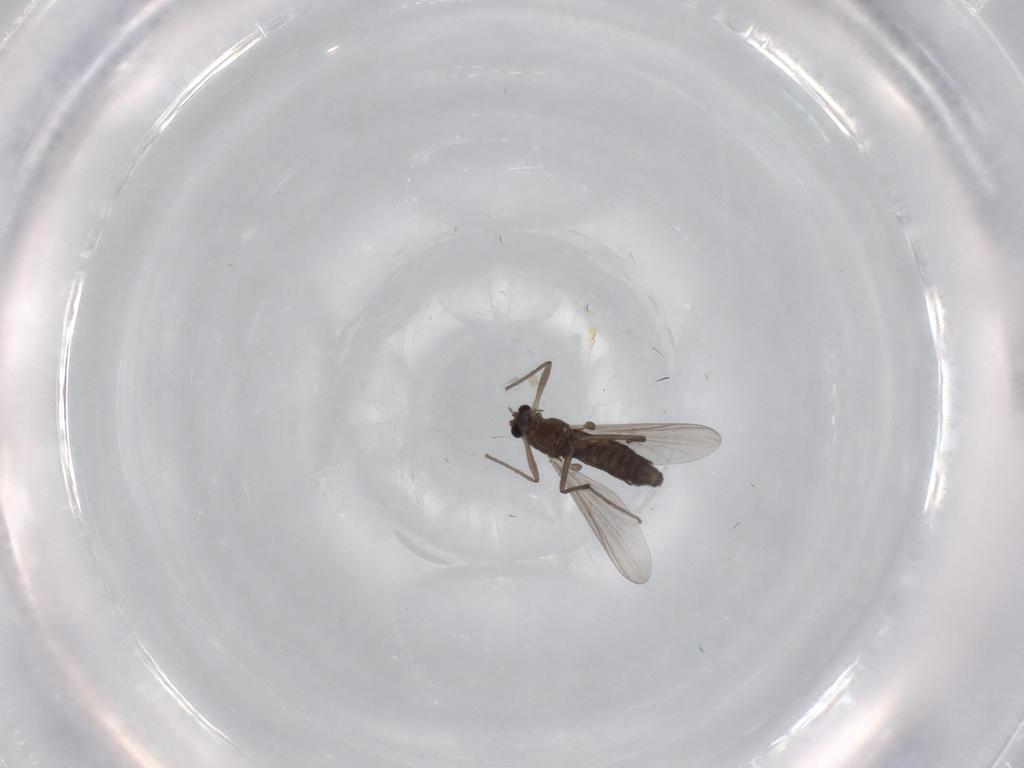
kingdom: Animalia
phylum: Arthropoda
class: Insecta
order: Diptera
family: Chironomidae
